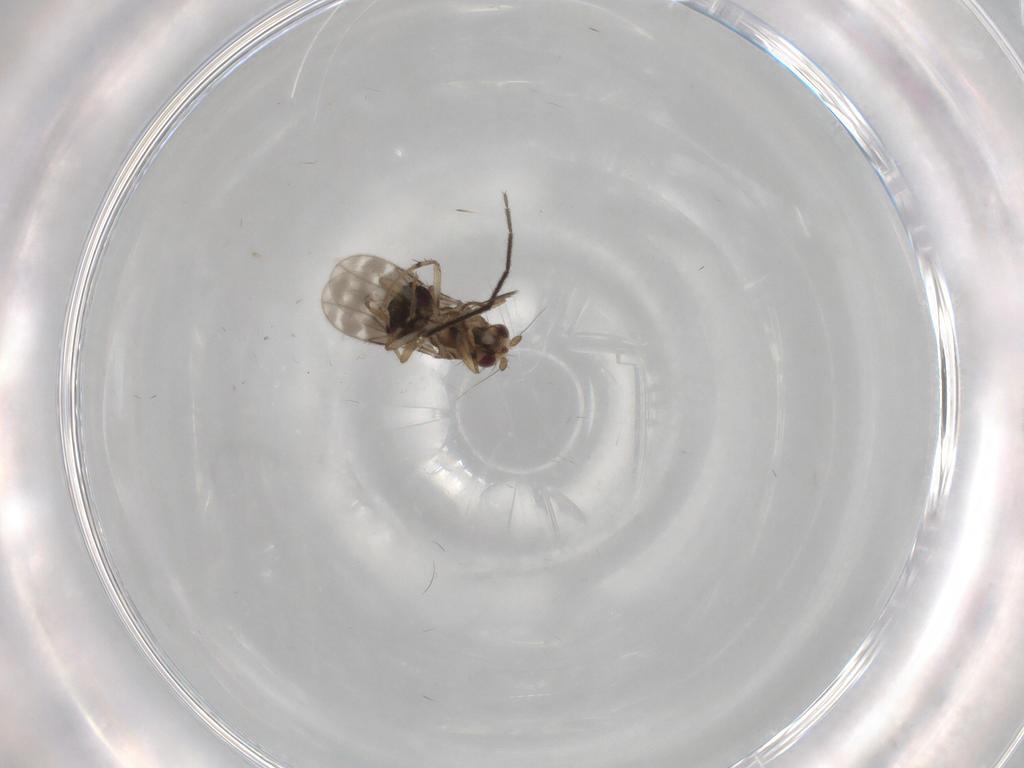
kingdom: Animalia
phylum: Arthropoda
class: Insecta
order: Diptera
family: Sphaeroceridae
